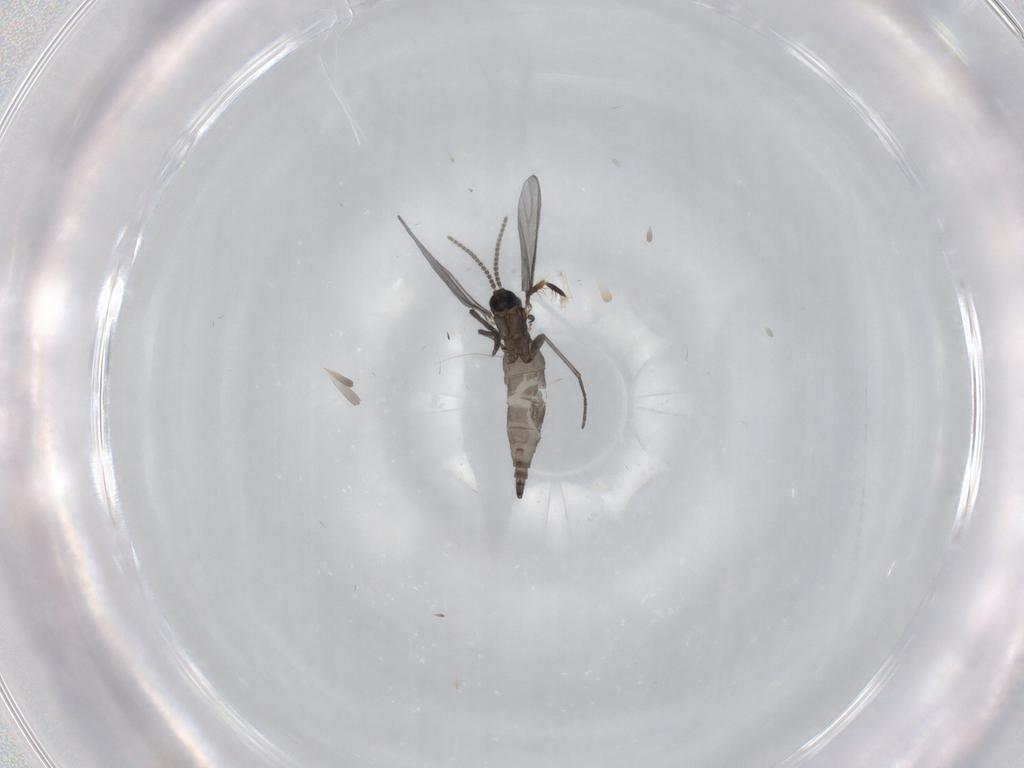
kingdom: Animalia
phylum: Arthropoda
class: Insecta
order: Diptera
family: Sciaridae
